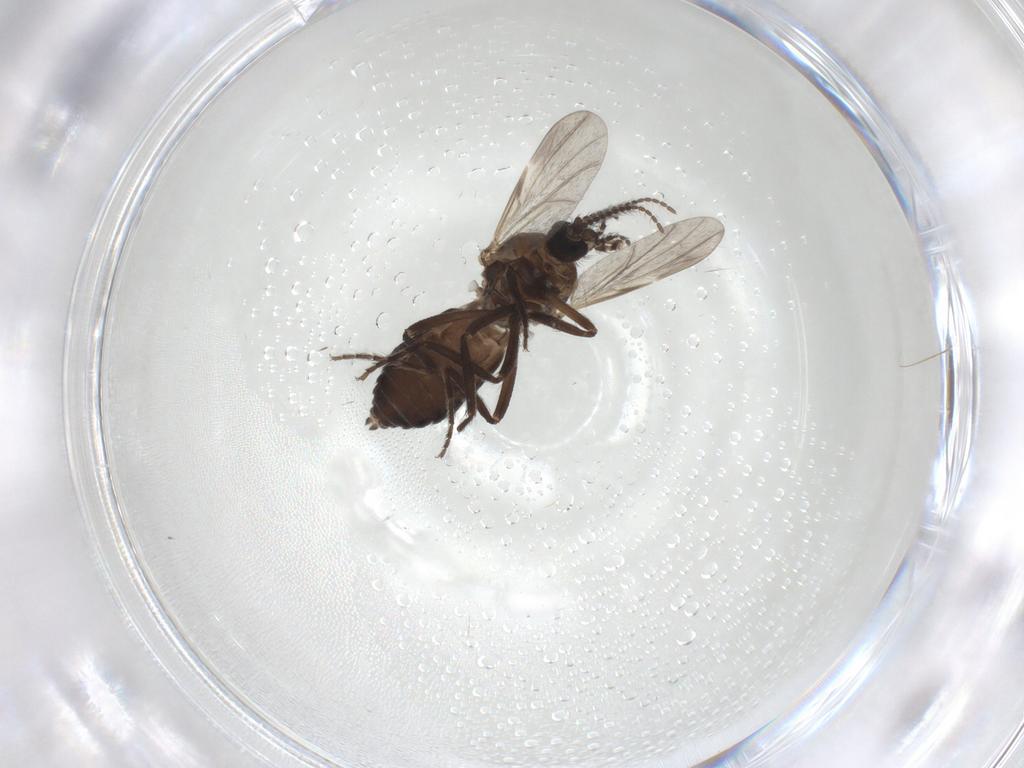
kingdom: Animalia
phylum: Arthropoda
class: Insecta
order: Diptera
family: Ceratopogonidae
